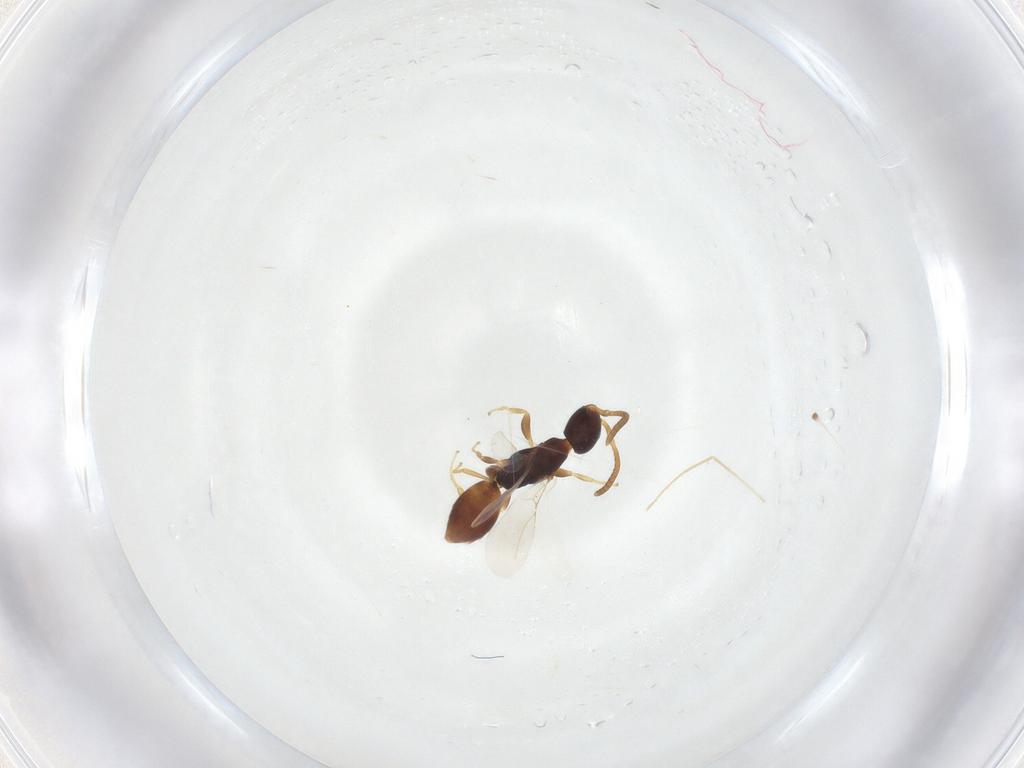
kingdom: Animalia
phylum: Arthropoda
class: Insecta
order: Hymenoptera
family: Bethylidae
